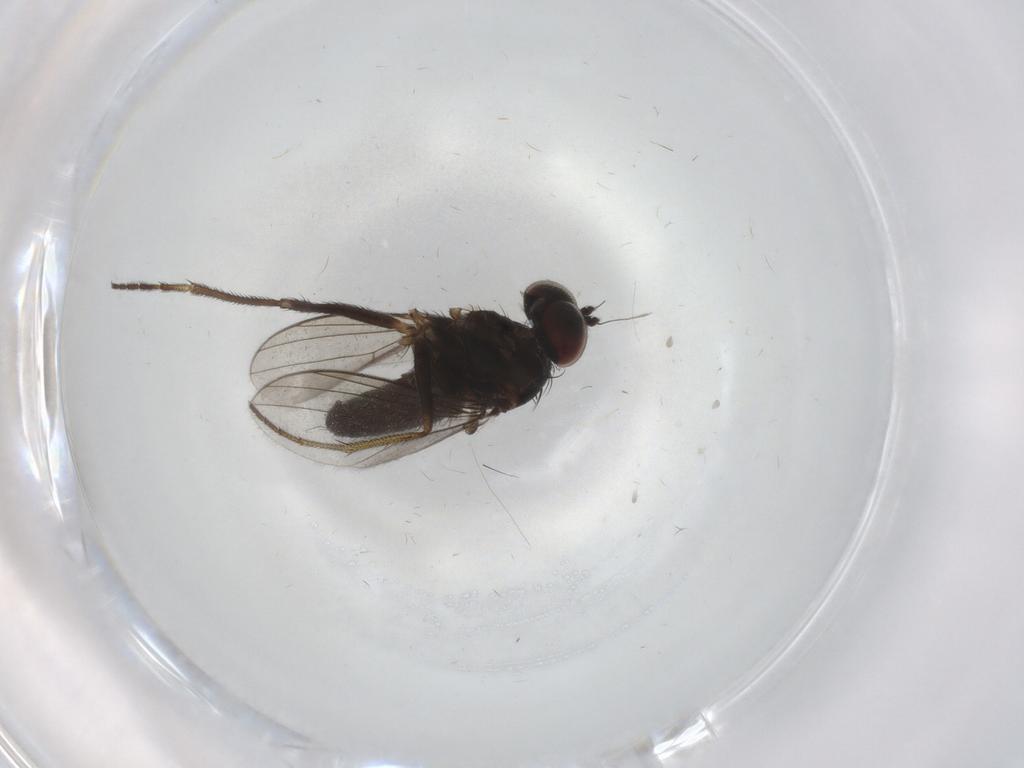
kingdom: Animalia
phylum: Arthropoda
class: Insecta
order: Diptera
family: Dolichopodidae
